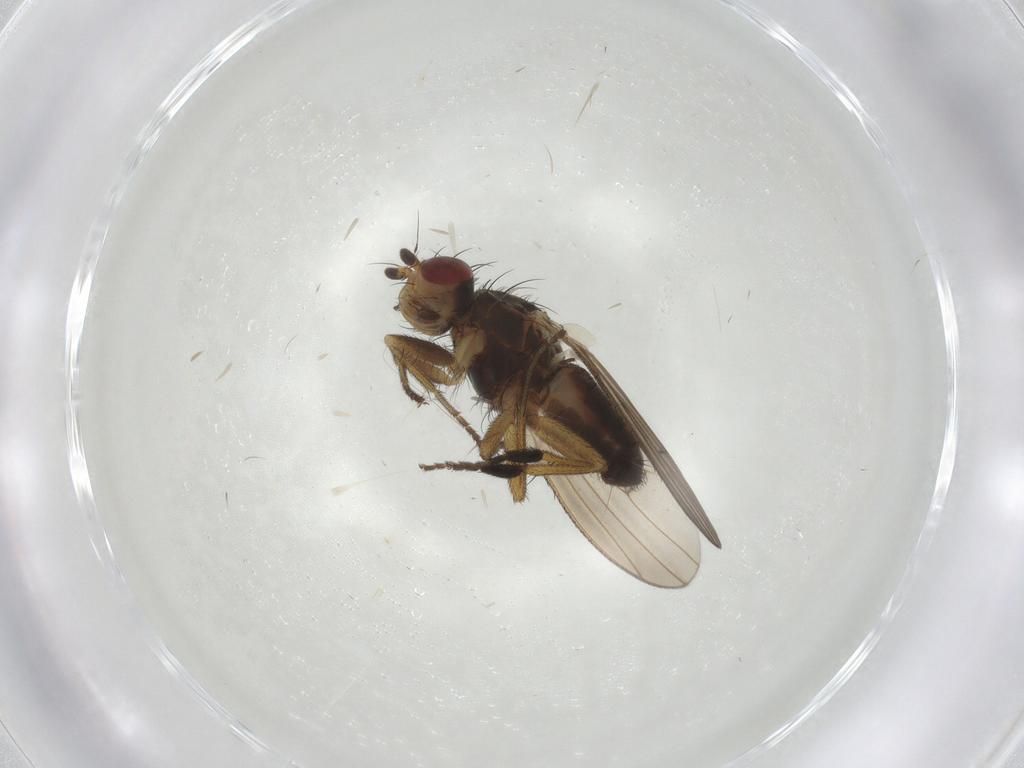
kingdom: Animalia
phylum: Arthropoda
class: Insecta
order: Diptera
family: Heleomyzidae
